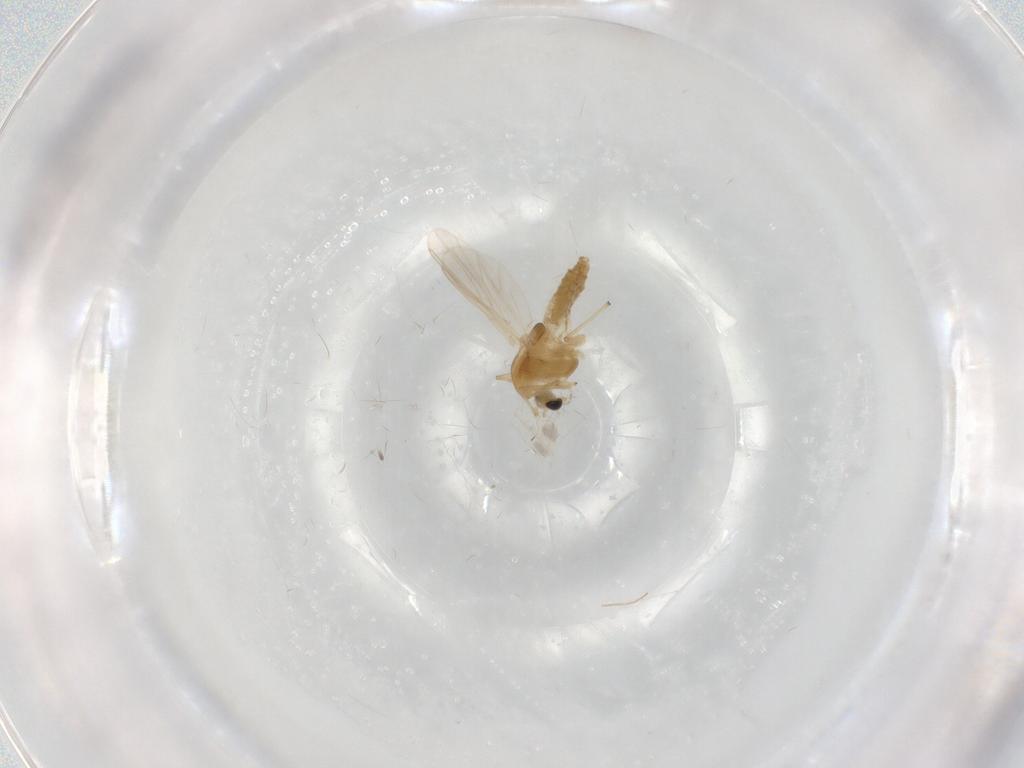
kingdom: Animalia
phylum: Arthropoda
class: Insecta
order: Diptera
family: Chironomidae
